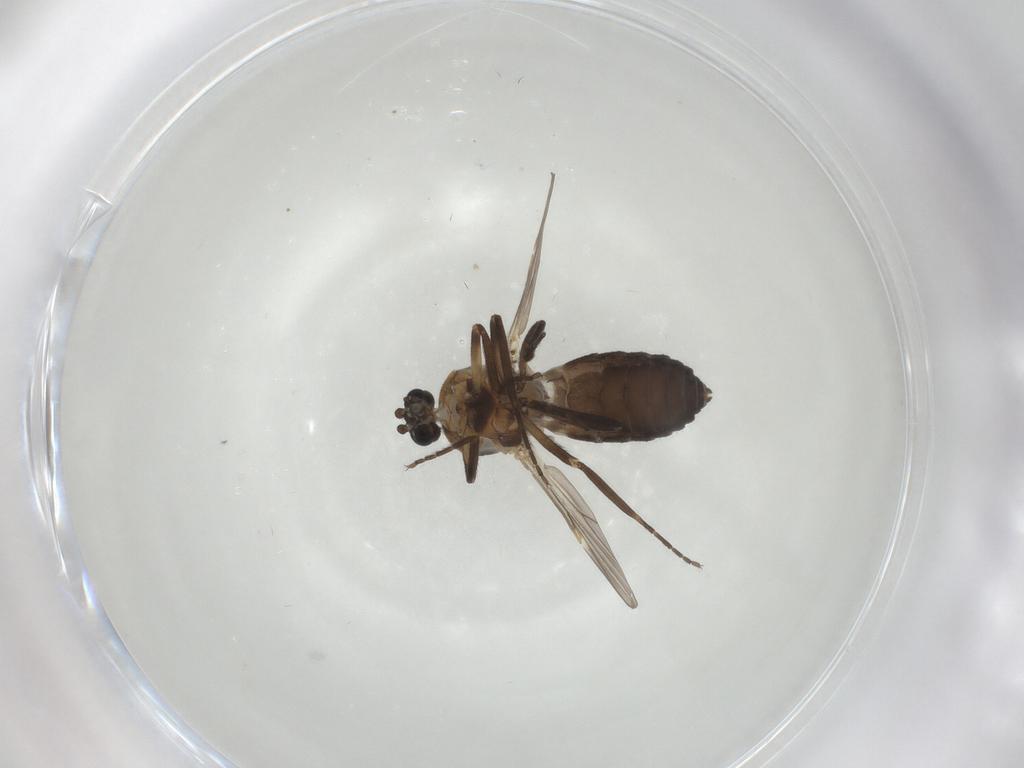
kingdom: Animalia
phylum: Arthropoda
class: Insecta
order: Diptera
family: Ceratopogonidae
